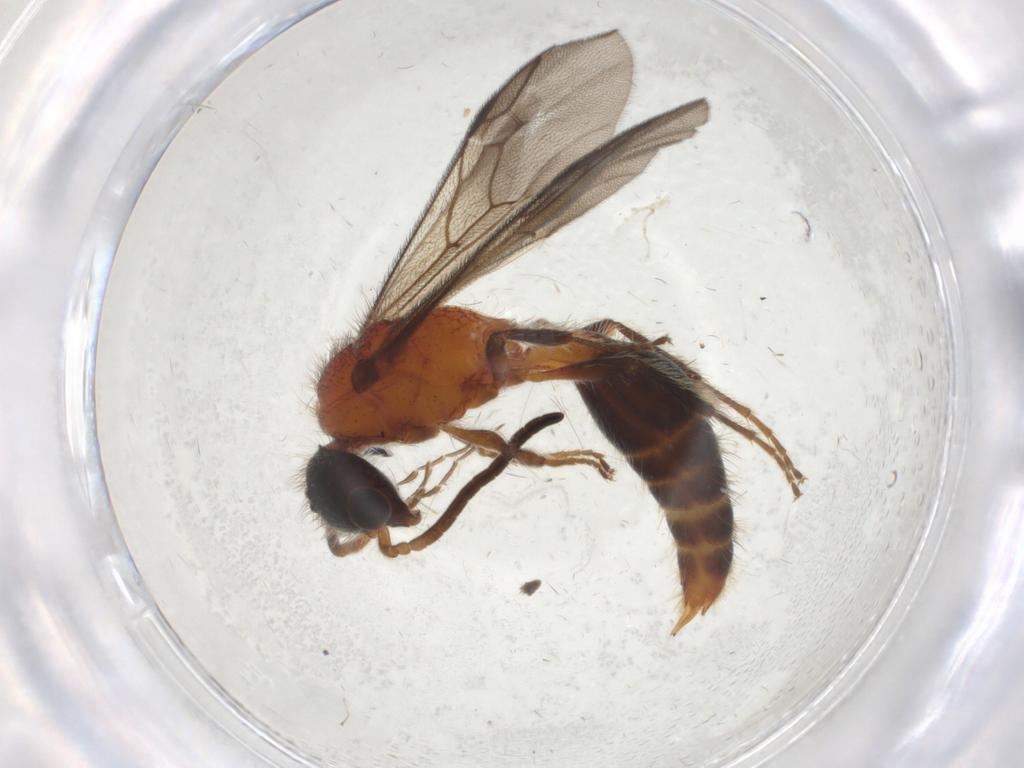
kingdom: Animalia
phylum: Arthropoda
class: Insecta
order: Hymenoptera
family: Mutillidae
